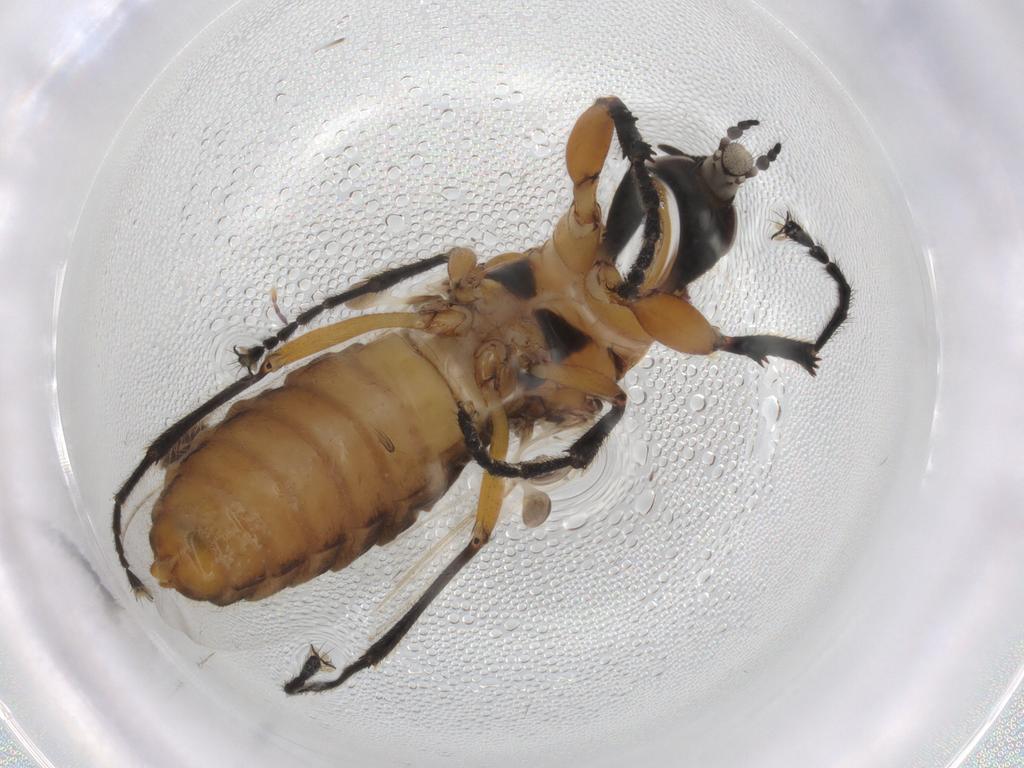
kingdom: Animalia
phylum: Arthropoda
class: Insecta
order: Diptera
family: Bibionidae
